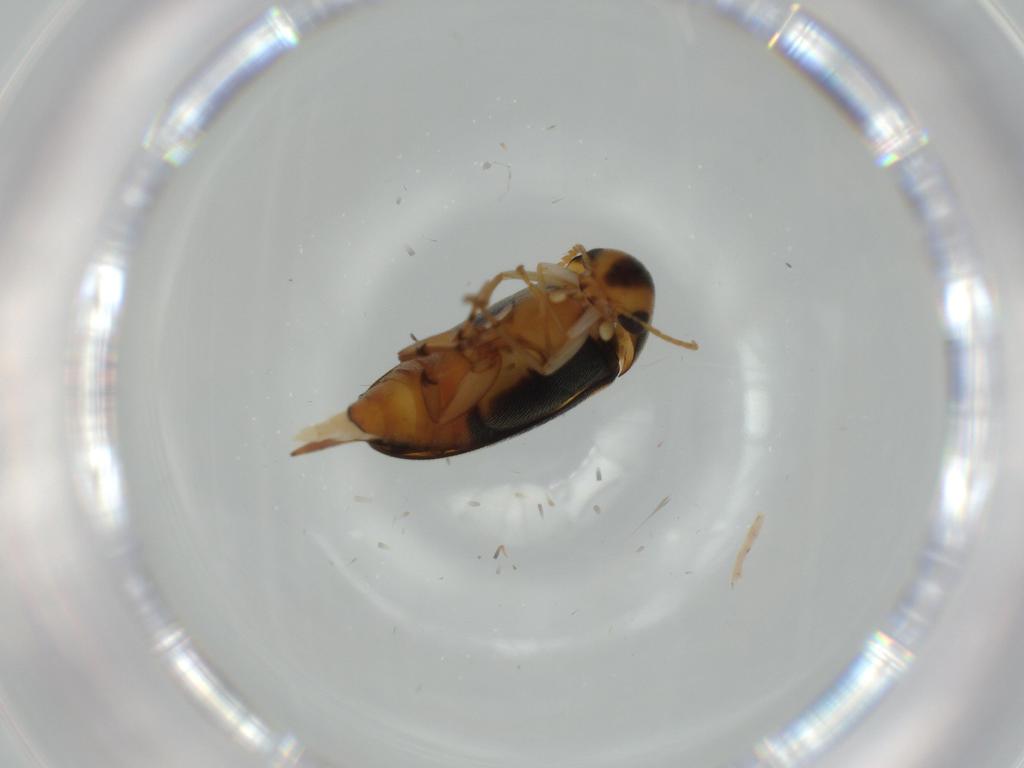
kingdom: Animalia
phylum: Arthropoda
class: Insecta
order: Coleoptera
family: Mordellidae
